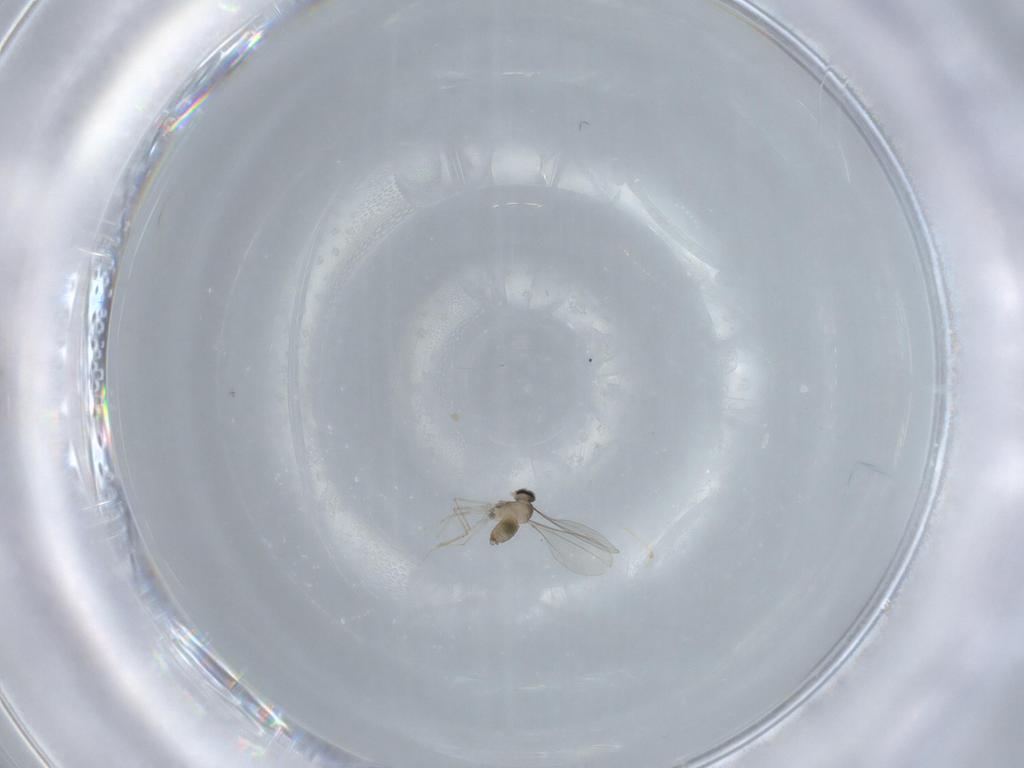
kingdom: Animalia
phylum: Arthropoda
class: Insecta
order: Diptera
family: Cecidomyiidae
